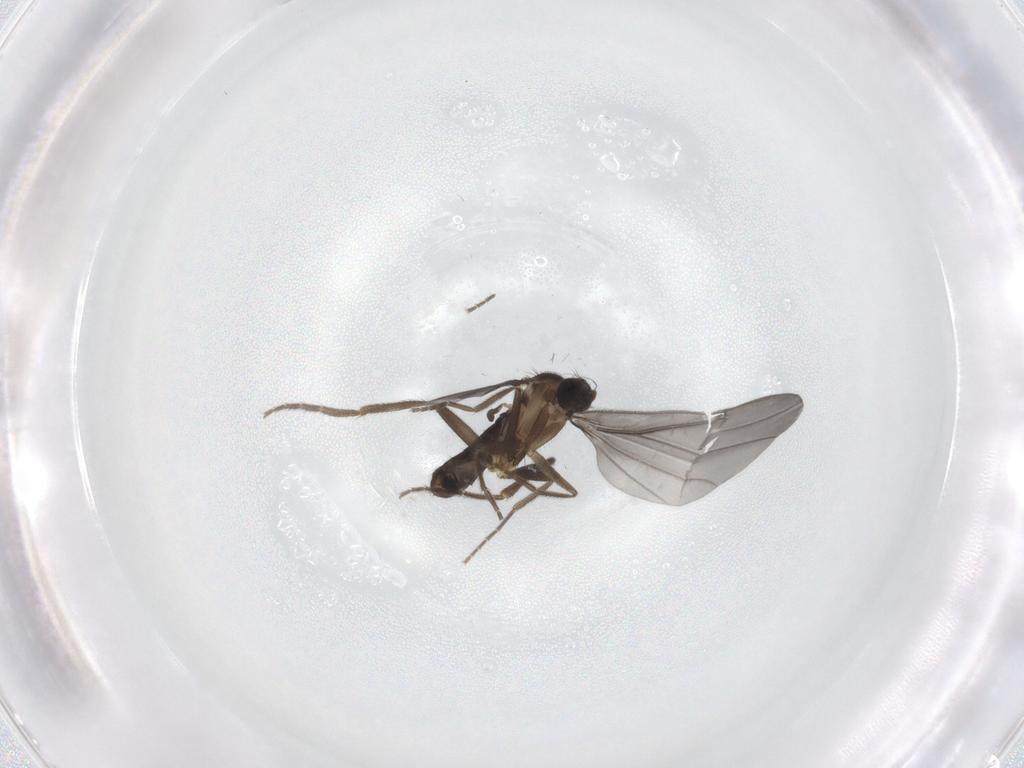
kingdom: Animalia
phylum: Arthropoda
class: Insecta
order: Diptera
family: Phoridae
